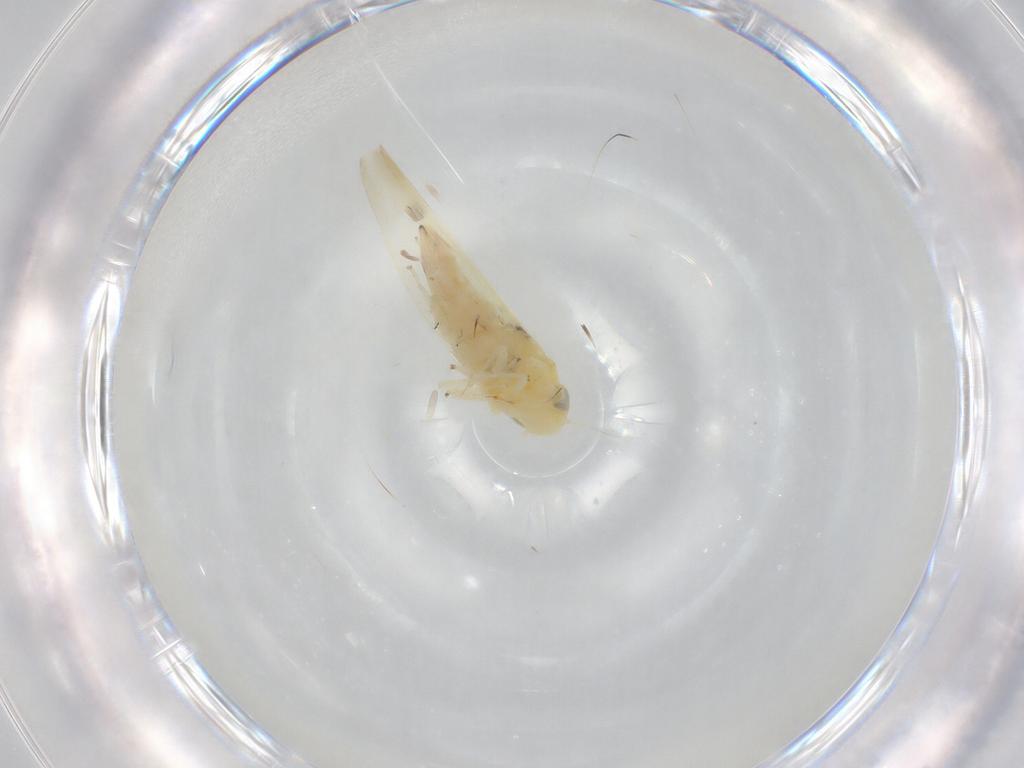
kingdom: Animalia
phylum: Arthropoda
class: Insecta
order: Hemiptera
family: Cicadellidae
